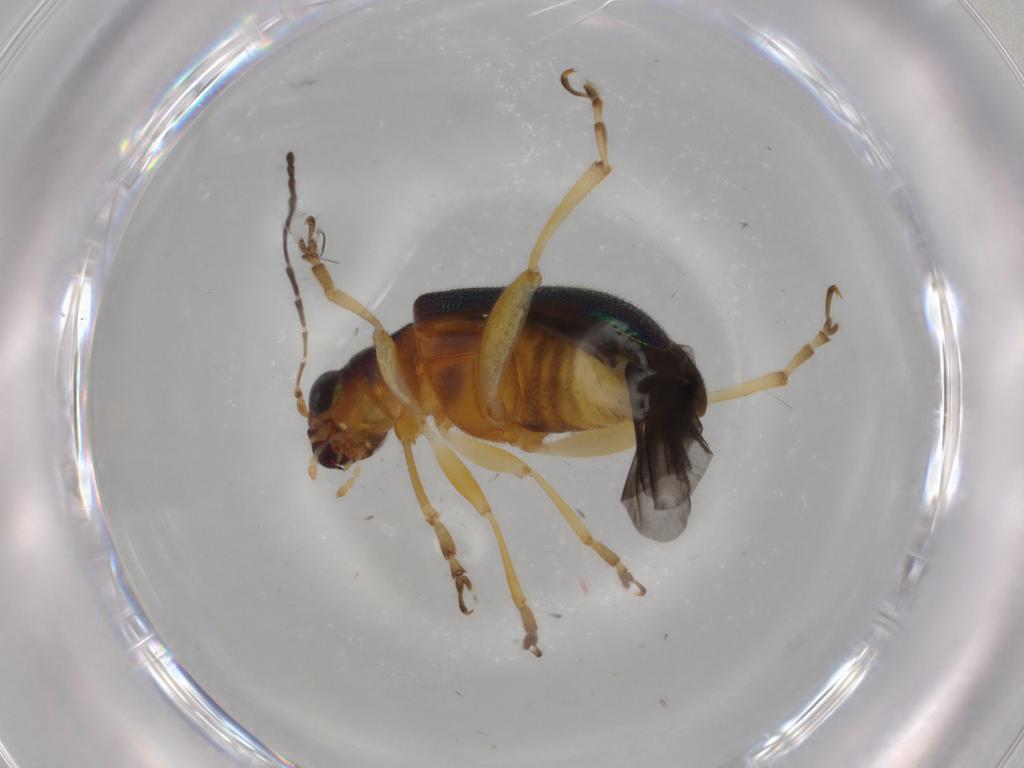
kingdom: Animalia
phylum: Arthropoda
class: Insecta
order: Coleoptera
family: Chrysomelidae
